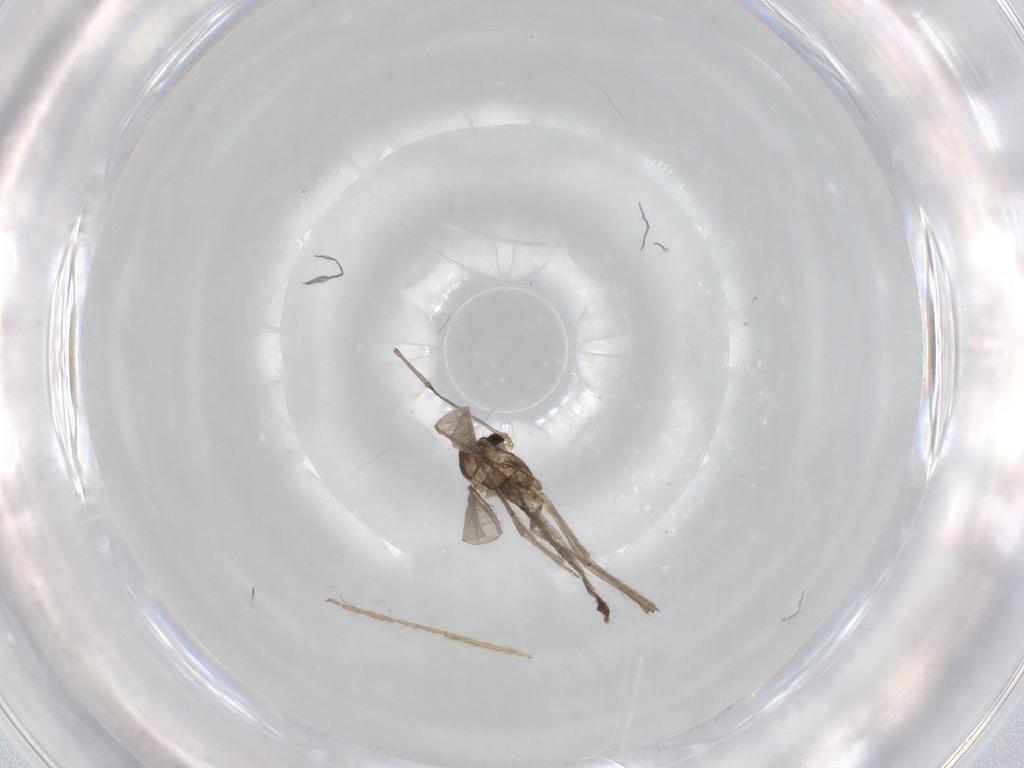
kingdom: Animalia
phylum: Arthropoda
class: Insecta
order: Diptera
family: Chironomidae
